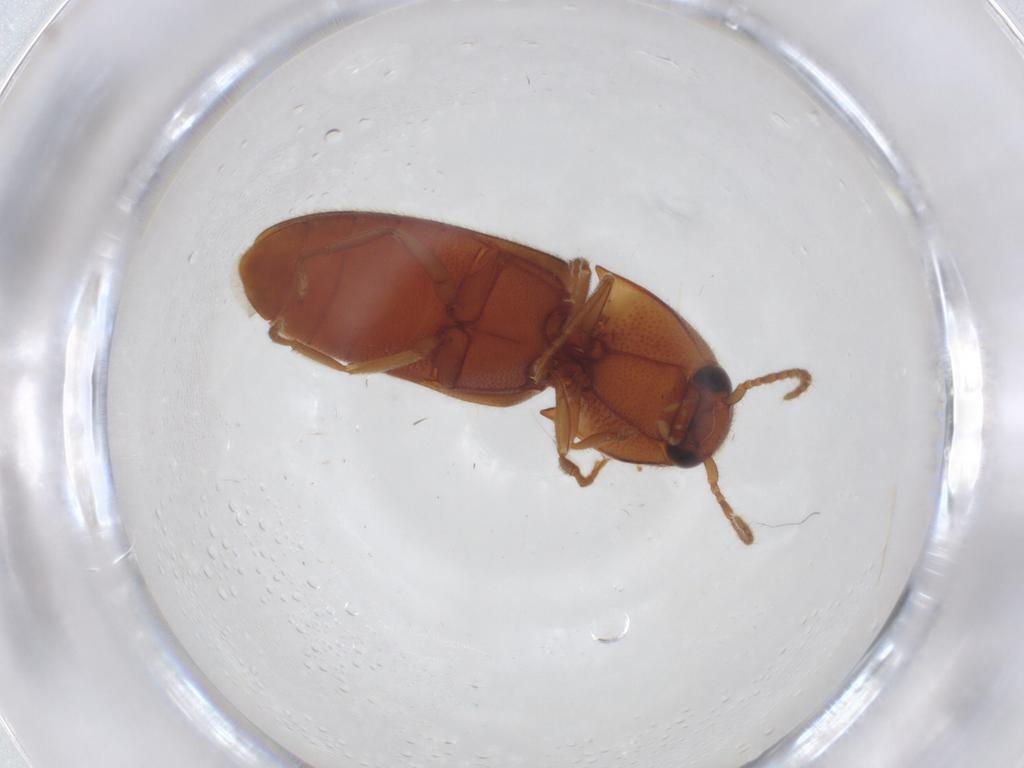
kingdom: Animalia
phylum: Arthropoda
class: Insecta
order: Coleoptera
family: Elateridae
